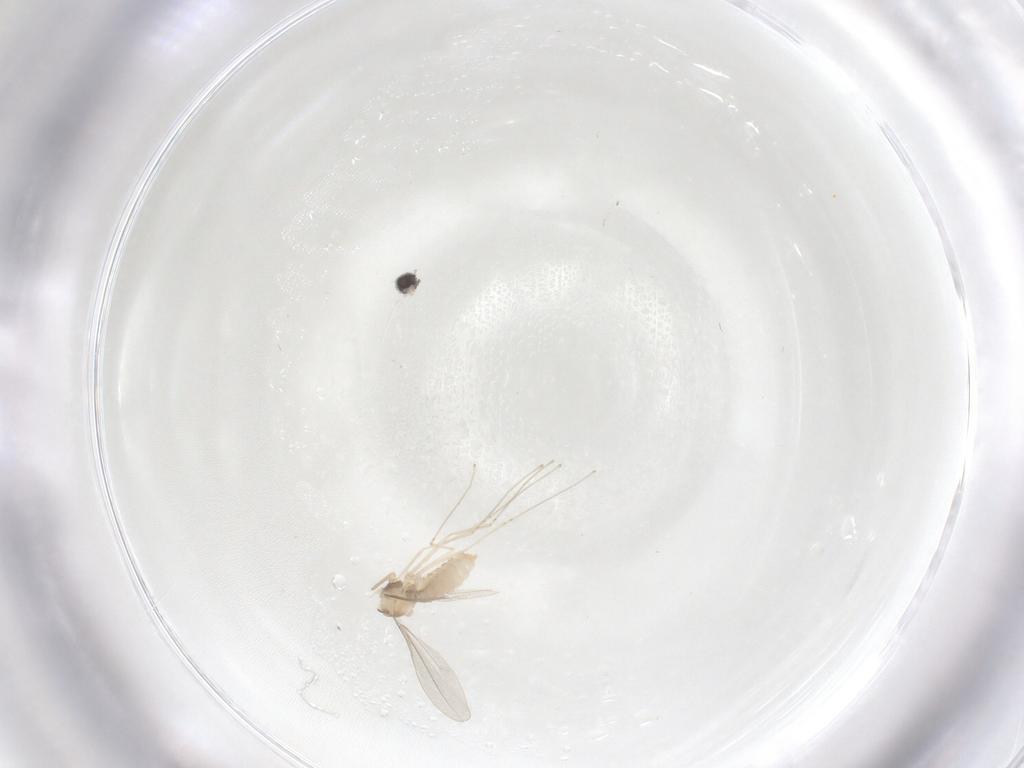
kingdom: Animalia
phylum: Arthropoda
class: Insecta
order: Diptera
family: Cecidomyiidae
